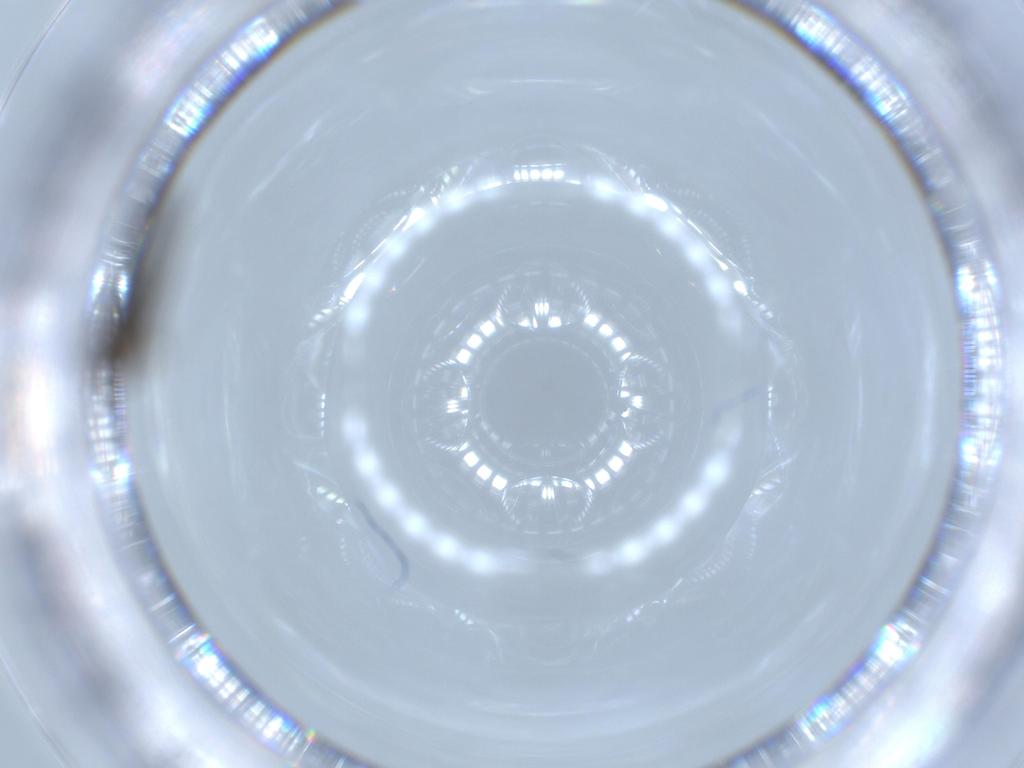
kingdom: Animalia
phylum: Arthropoda
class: Insecta
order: Diptera
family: Sciaridae
